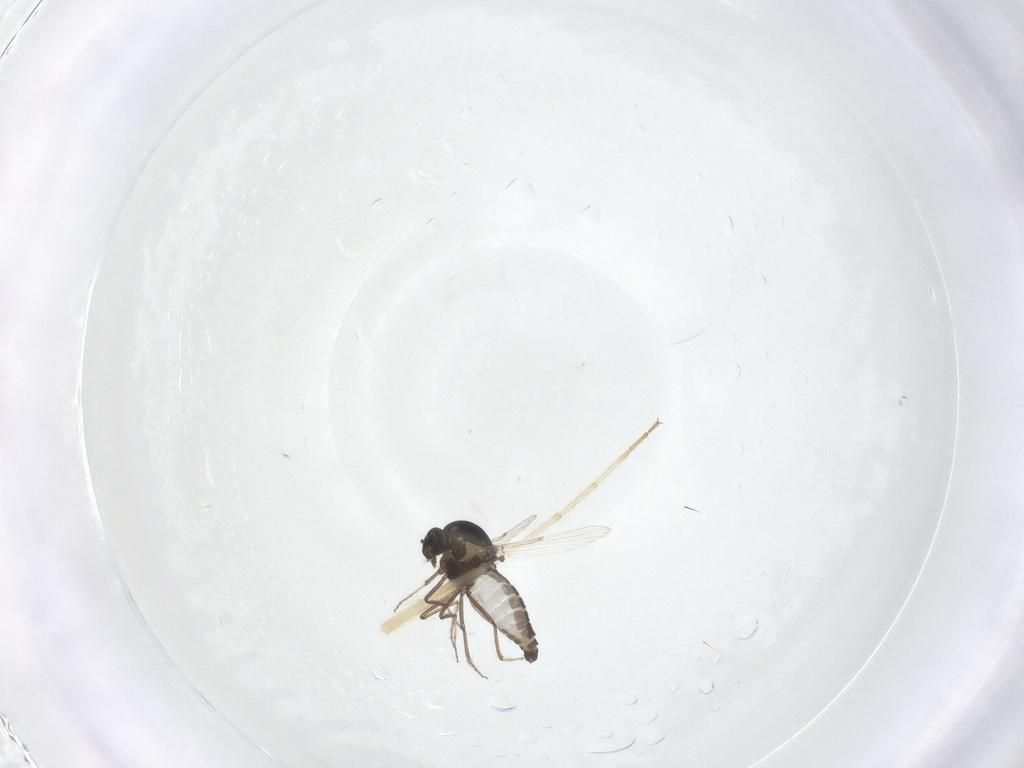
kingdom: Animalia
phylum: Arthropoda
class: Insecta
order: Diptera
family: Ceratopogonidae
